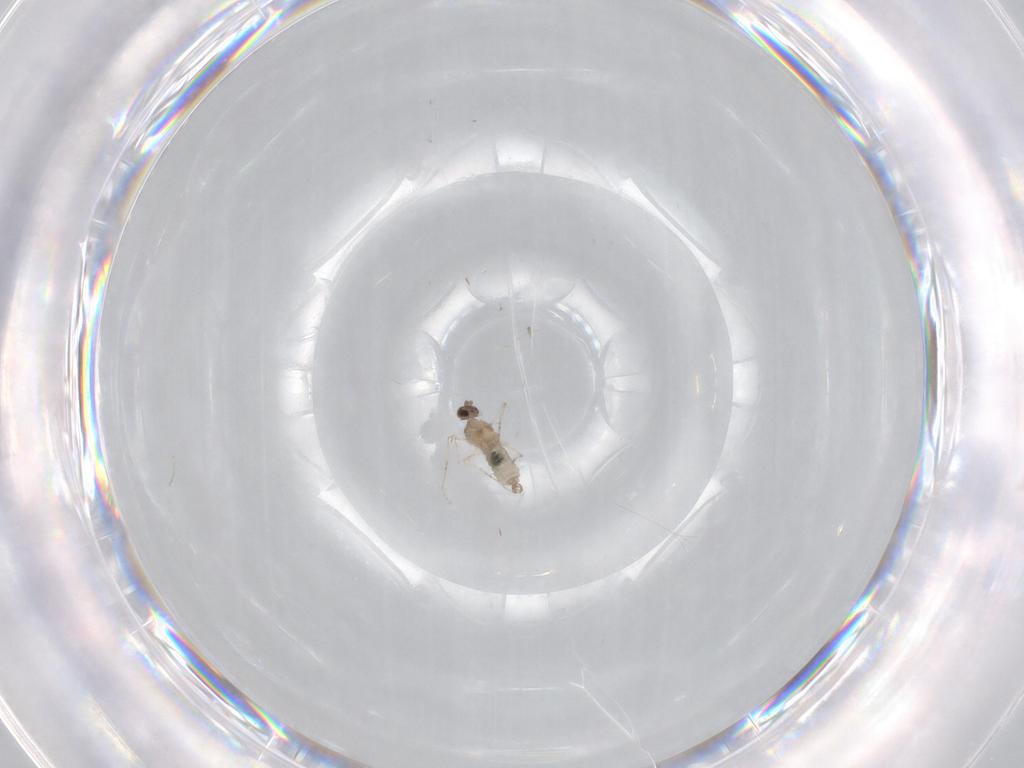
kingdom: Animalia
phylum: Arthropoda
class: Insecta
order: Diptera
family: Cecidomyiidae
